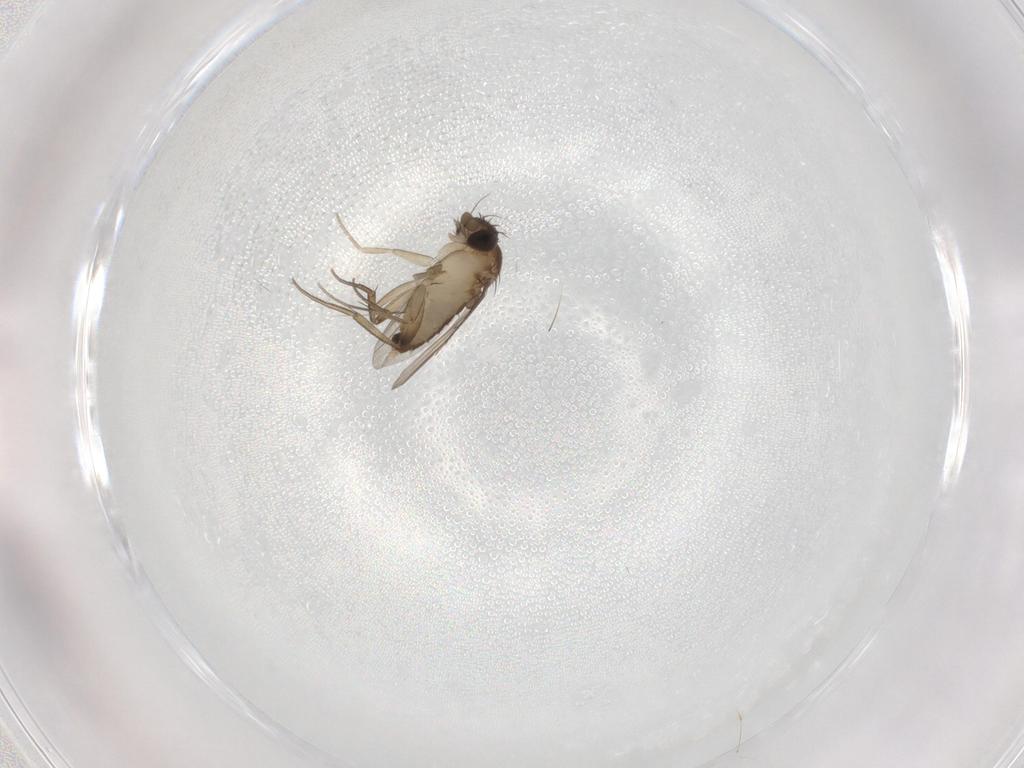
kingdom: Animalia
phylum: Arthropoda
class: Insecta
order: Diptera
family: Phoridae
